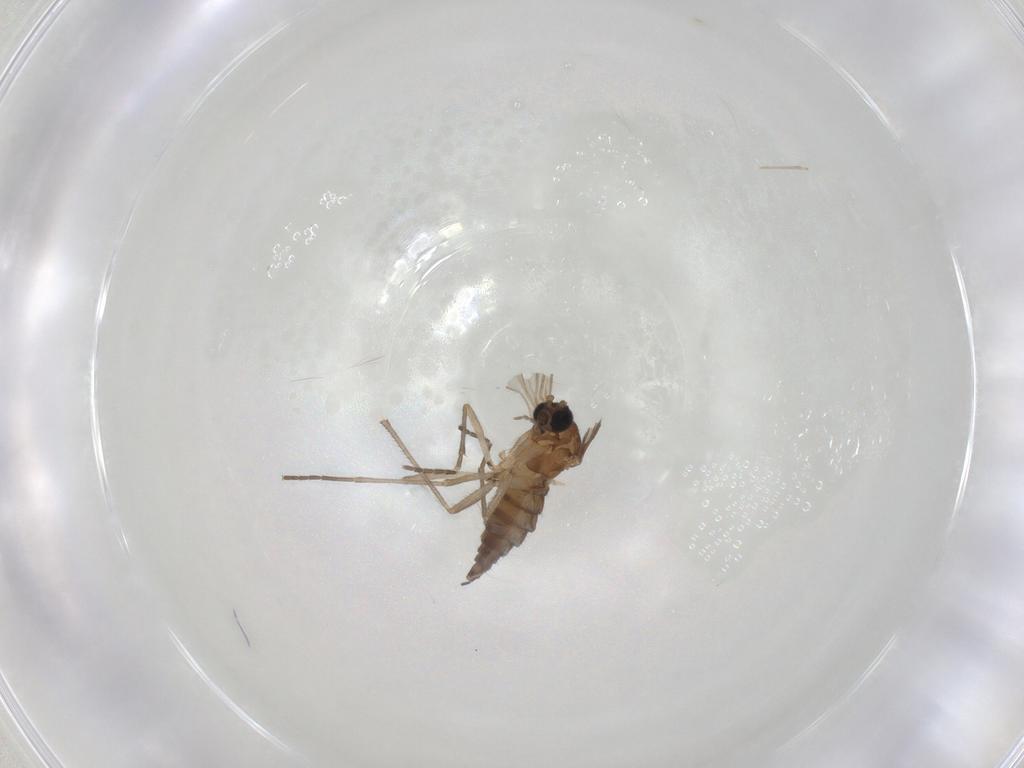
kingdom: Animalia
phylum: Arthropoda
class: Insecta
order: Diptera
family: Sciaridae
